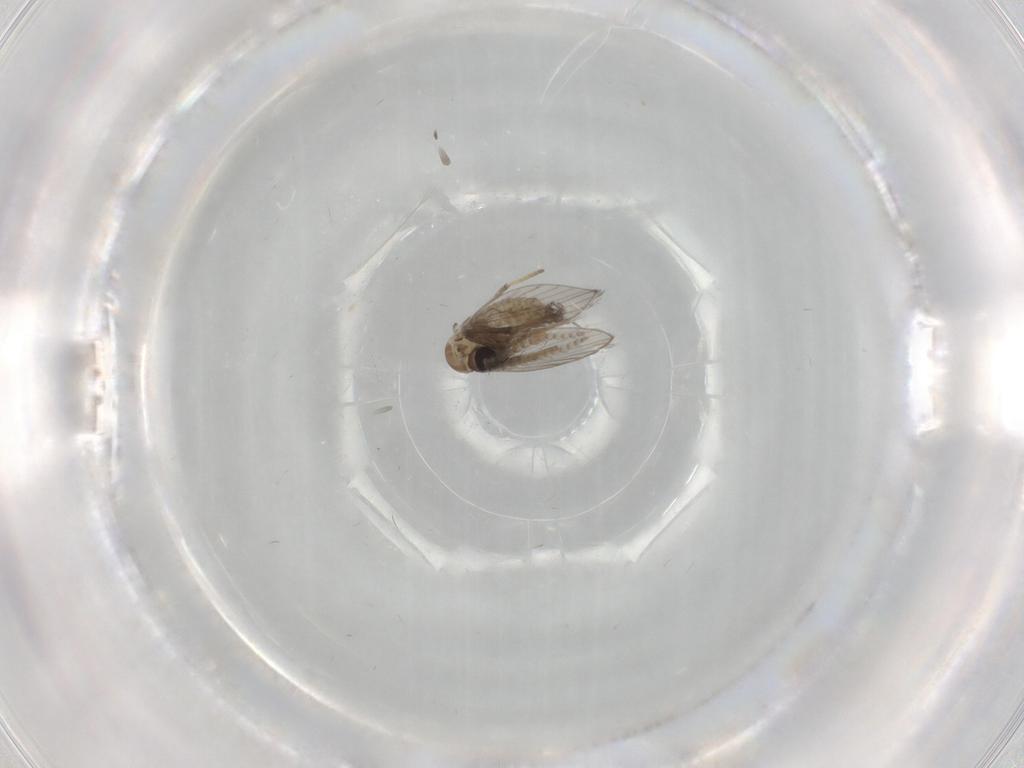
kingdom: Animalia
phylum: Arthropoda
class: Insecta
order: Diptera
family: Psychodidae
